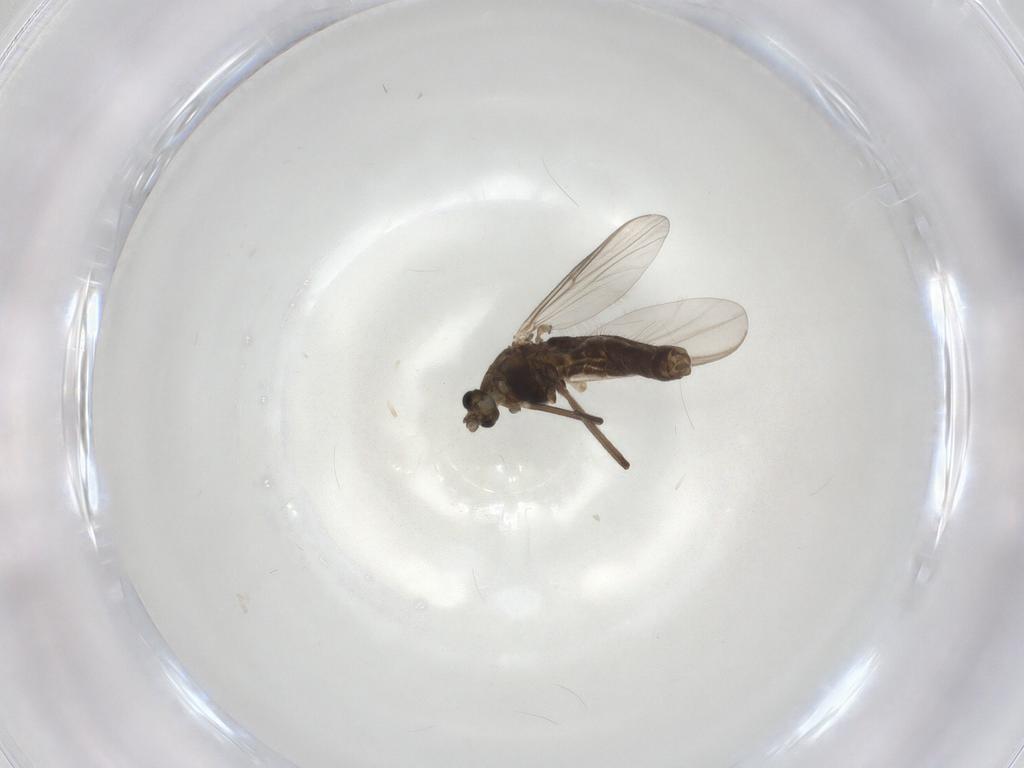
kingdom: Animalia
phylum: Arthropoda
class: Insecta
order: Diptera
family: Chironomidae
